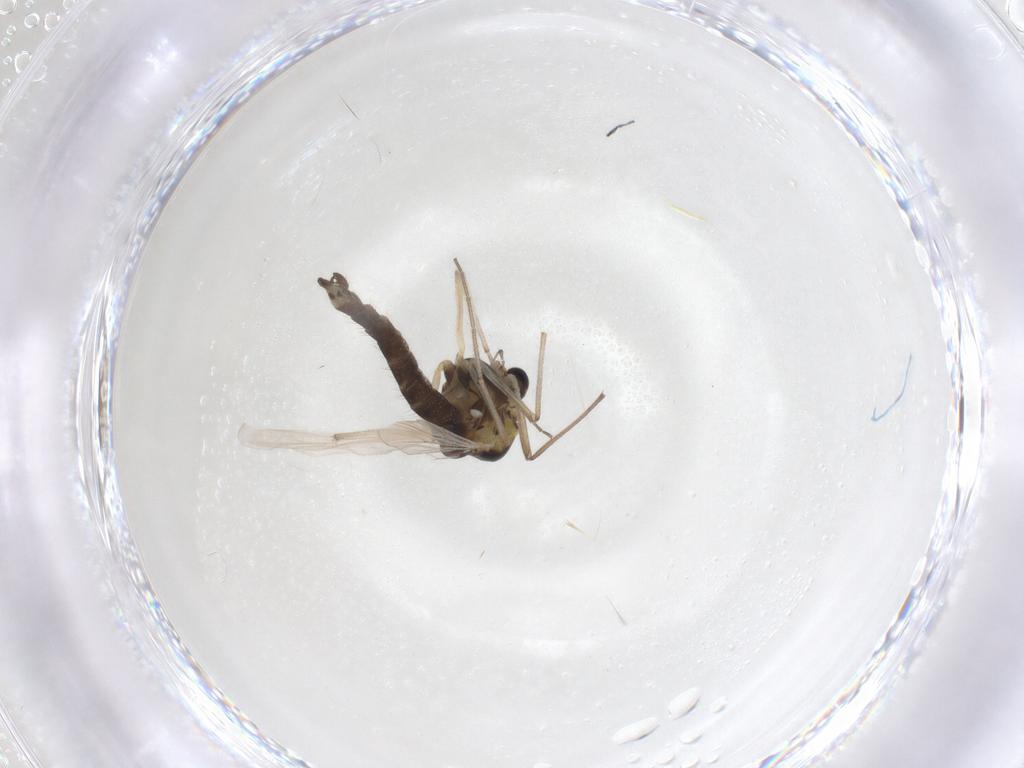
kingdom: Animalia
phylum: Arthropoda
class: Insecta
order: Diptera
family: Chironomidae
